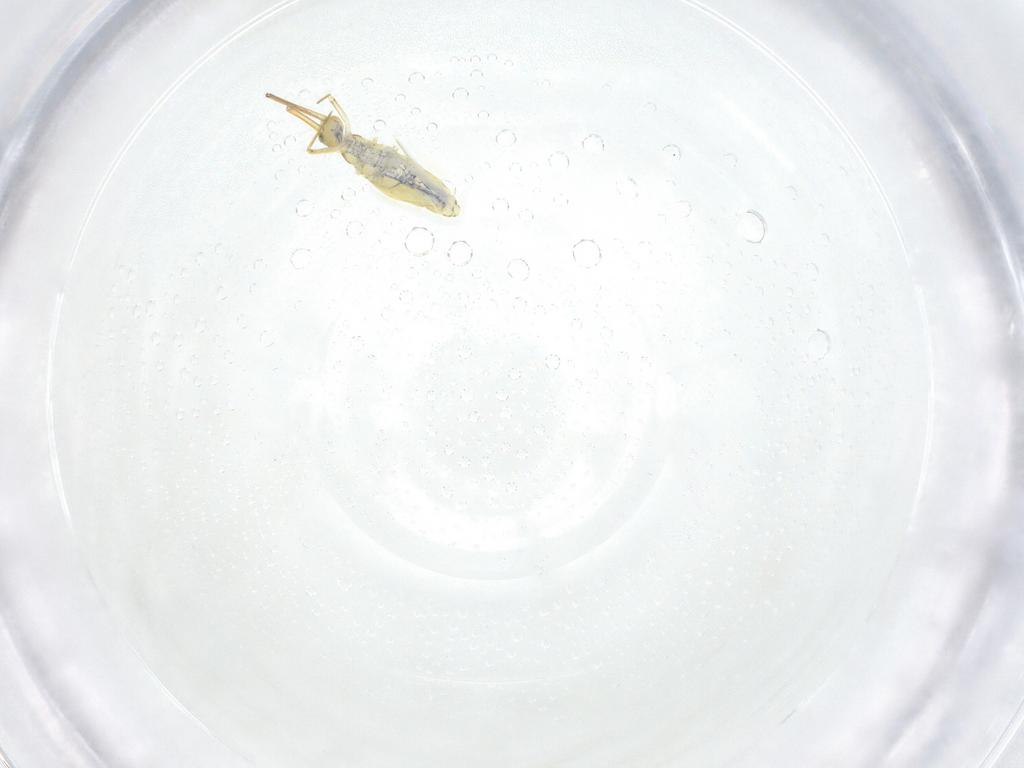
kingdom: Animalia
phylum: Arthropoda
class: Collembola
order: Entomobryomorpha
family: Entomobryidae
